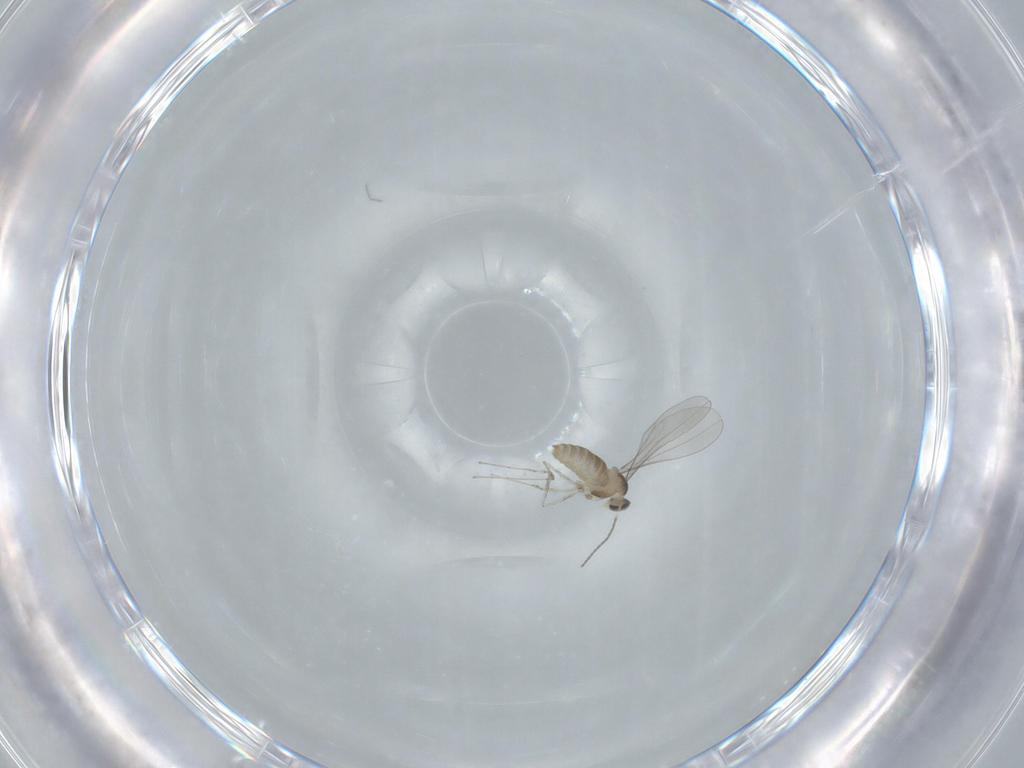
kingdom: Animalia
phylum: Arthropoda
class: Insecta
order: Diptera
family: Cecidomyiidae
